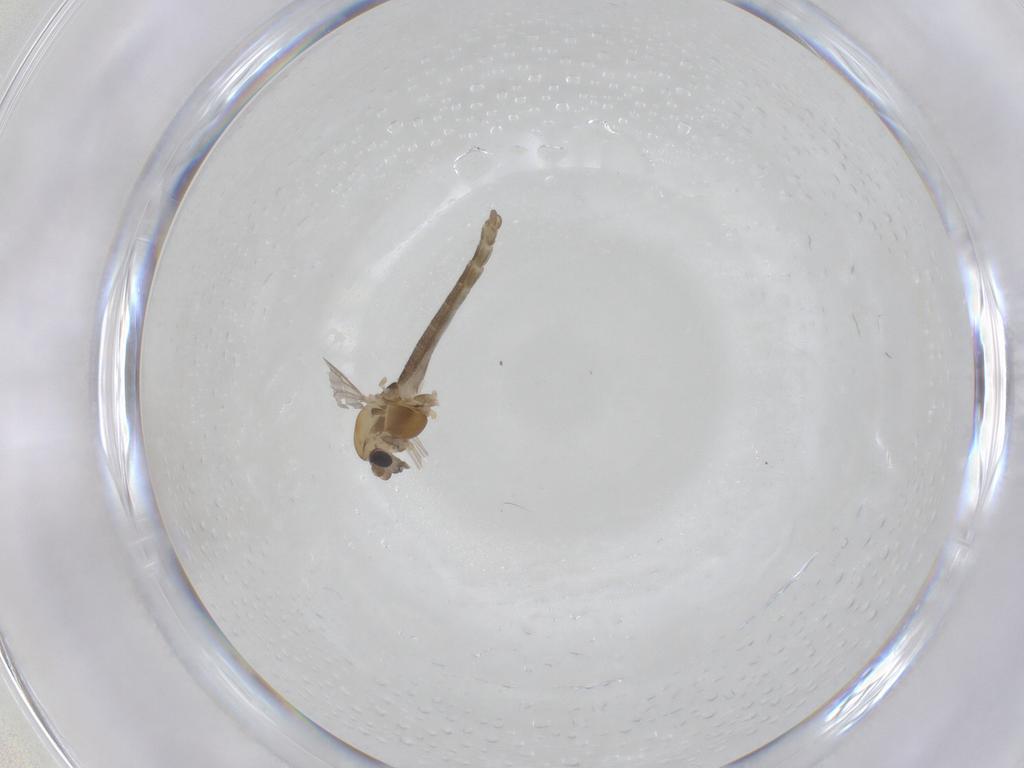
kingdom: Animalia
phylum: Arthropoda
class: Insecta
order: Diptera
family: Chironomidae
